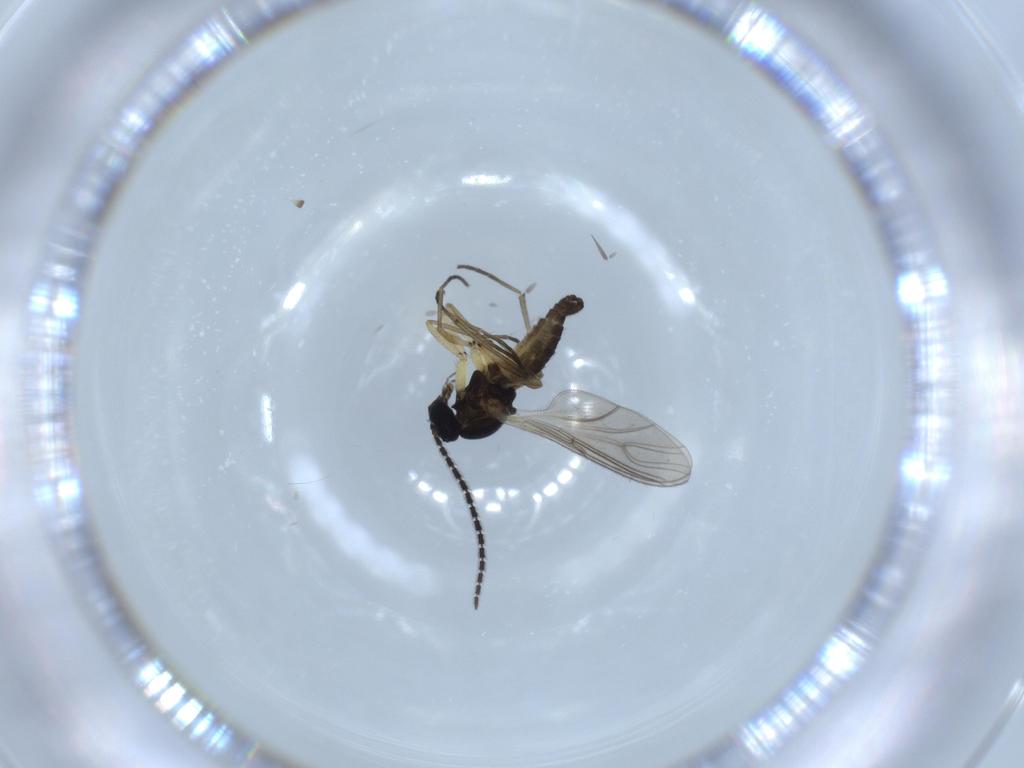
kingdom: Animalia
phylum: Arthropoda
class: Insecta
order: Diptera
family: Sciaridae
